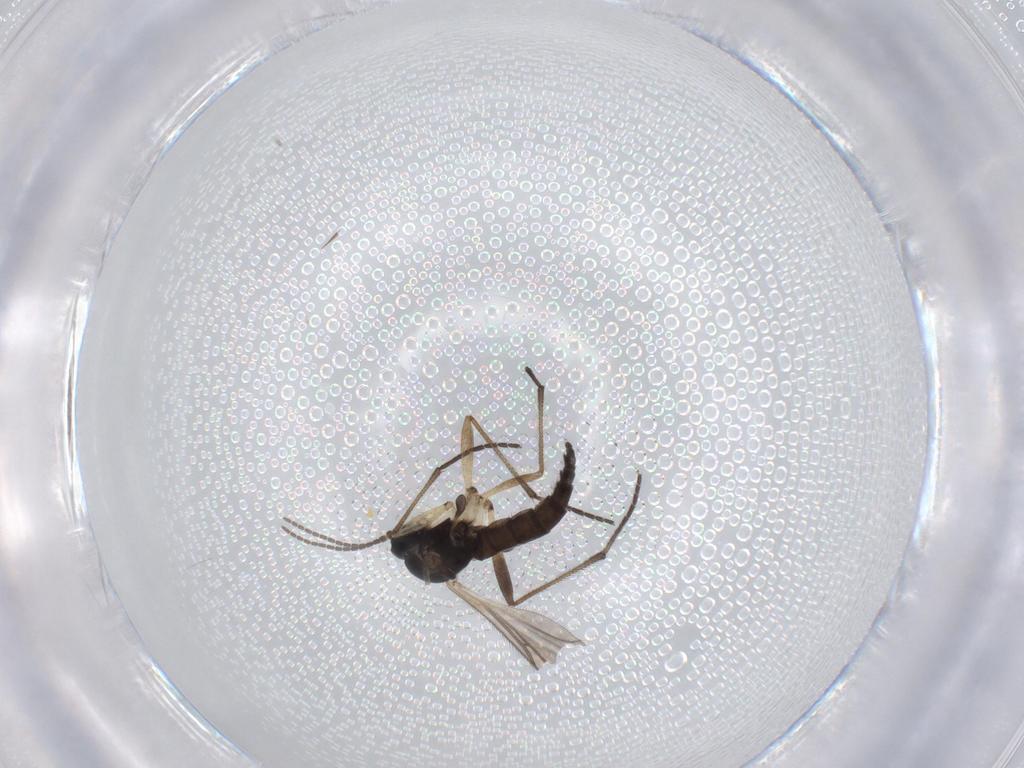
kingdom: Animalia
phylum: Arthropoda
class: Insecta
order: Diptera
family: Sciaridae
